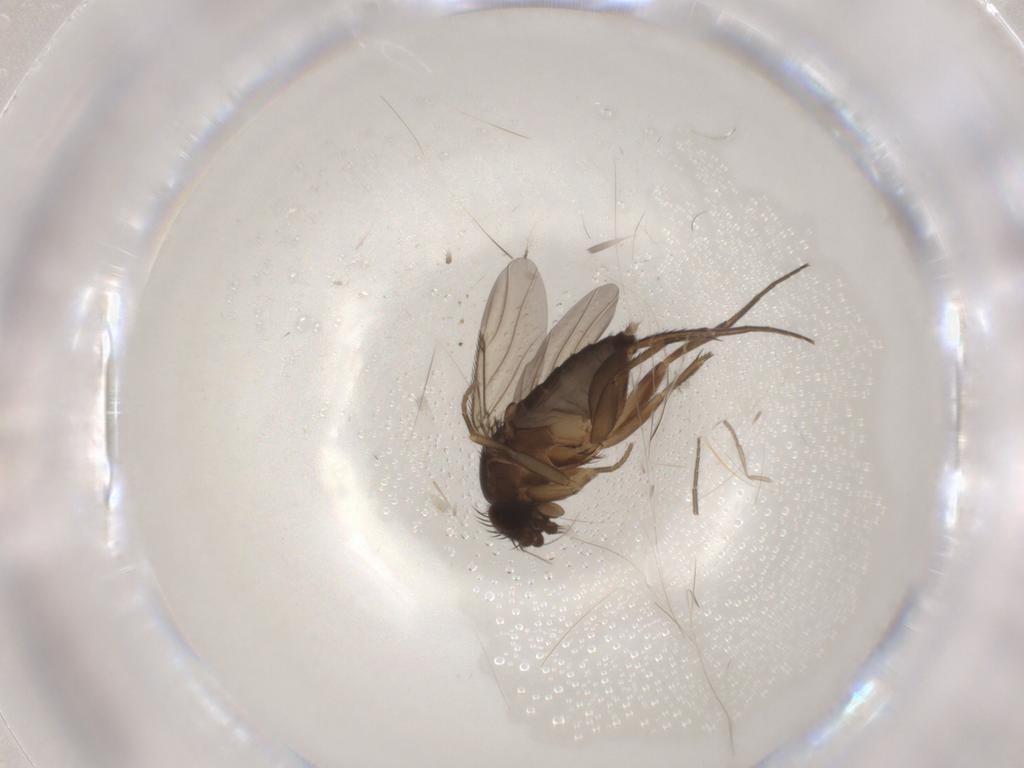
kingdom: Animalia
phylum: Arthropoda
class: Insecta
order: Diptera
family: Phoridae
